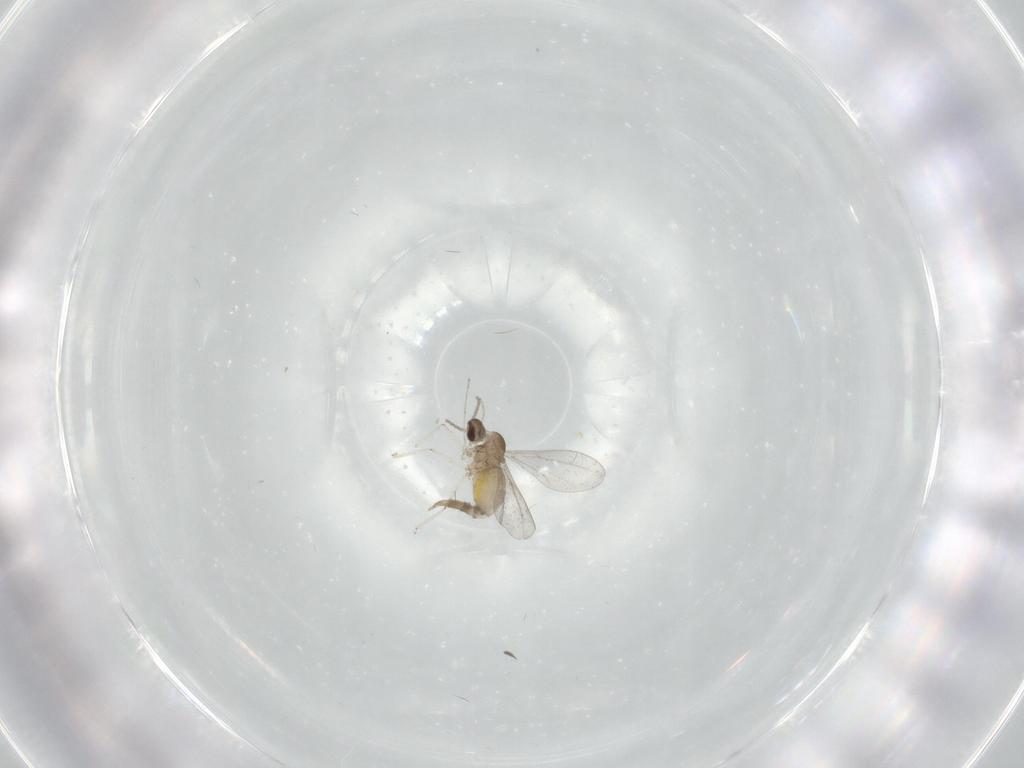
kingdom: Animalia
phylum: Arthropoda
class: Insecta
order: Diptera
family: Cecidomyiidae
